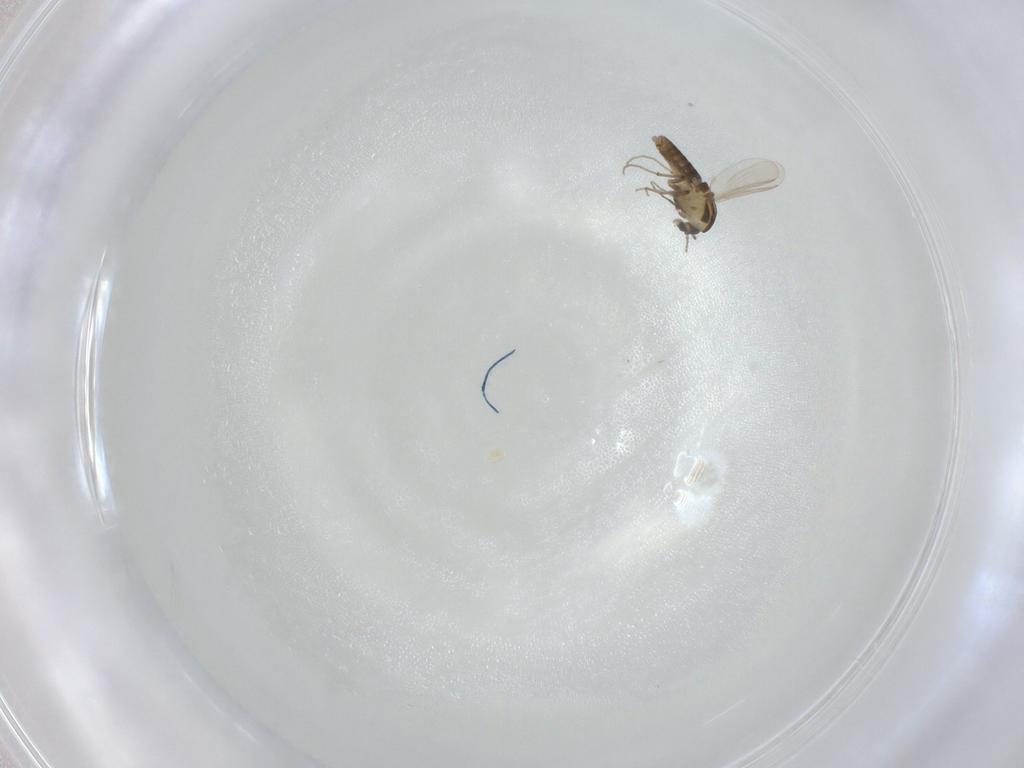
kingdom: Animalia
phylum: Arthropoda
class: Insecta
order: Diptera
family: Chironomidae
